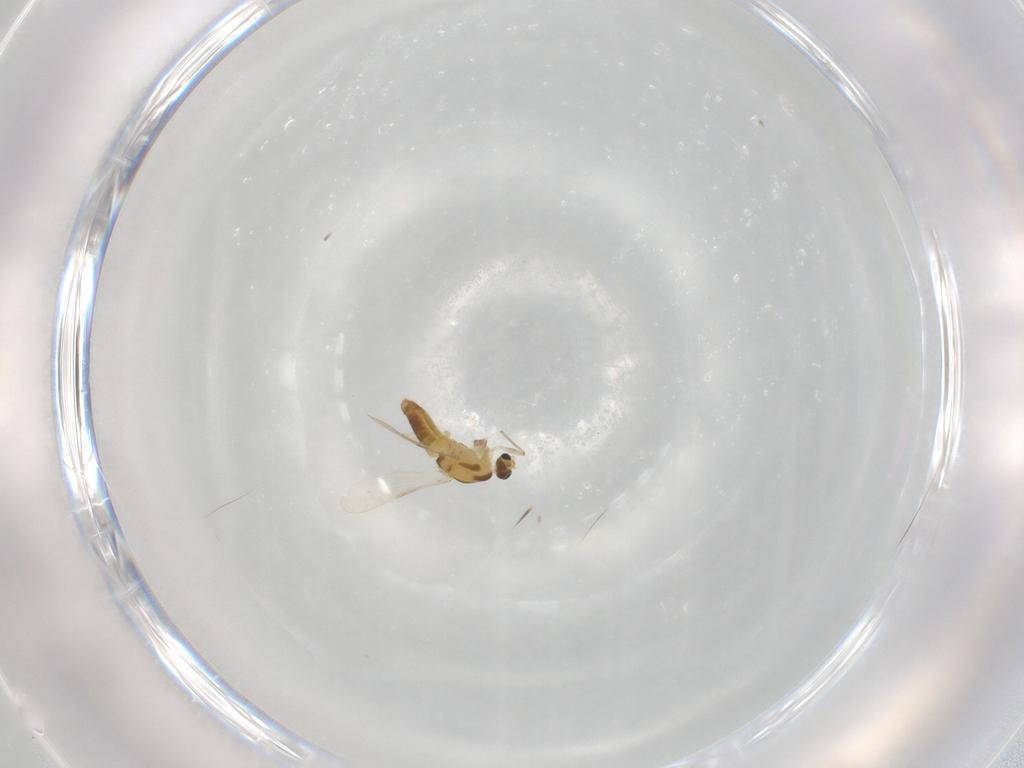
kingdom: Animalia
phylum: Arthropoda
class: Insecta
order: Diptera
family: Chironomidae
